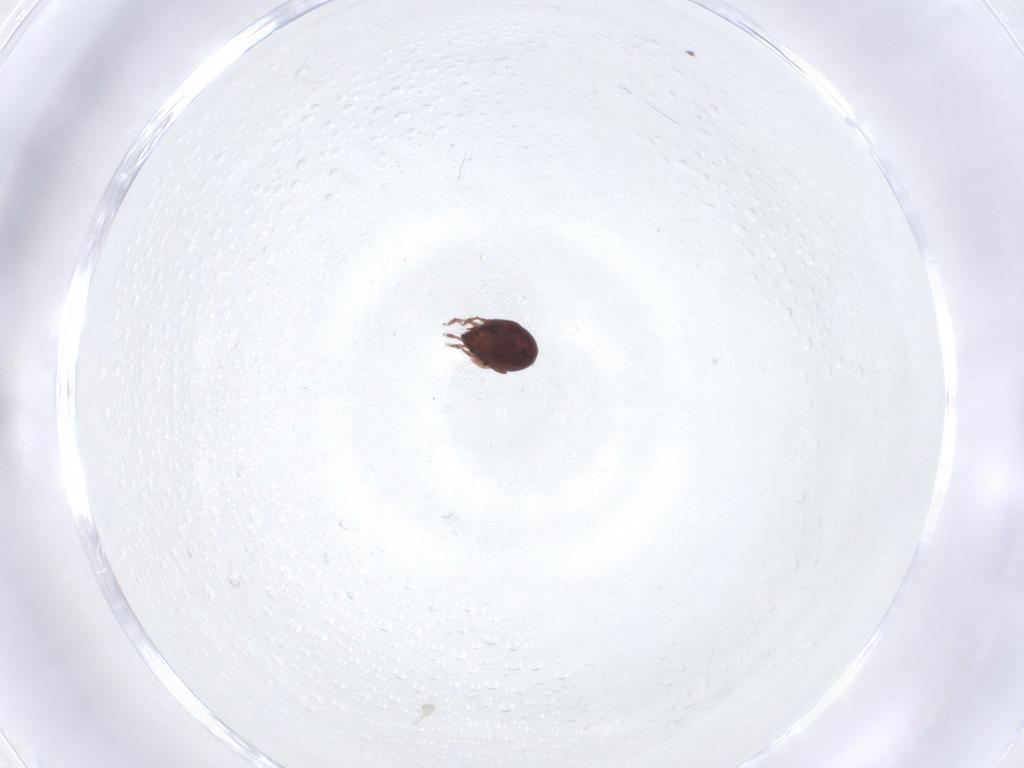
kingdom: Animalia
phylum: Arthropoda
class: Arachnida
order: Sarcoptiformes
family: Ceratozetidae
